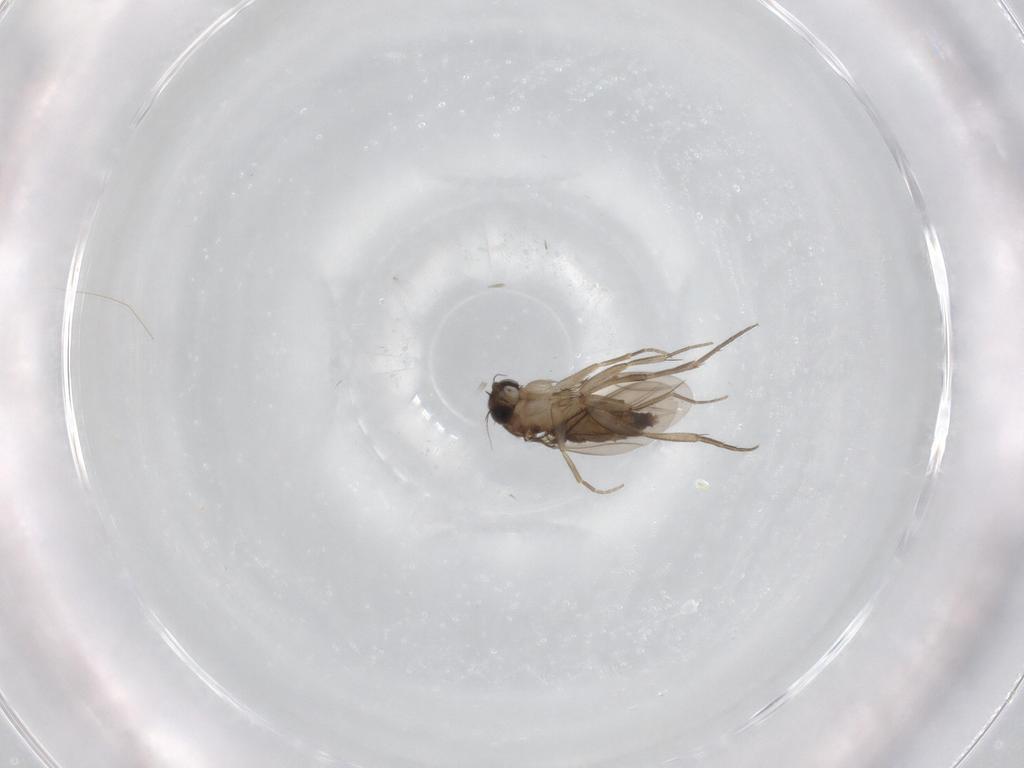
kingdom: Animalia
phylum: Arthropoda
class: Insecta
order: Diptera
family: Phoridae
